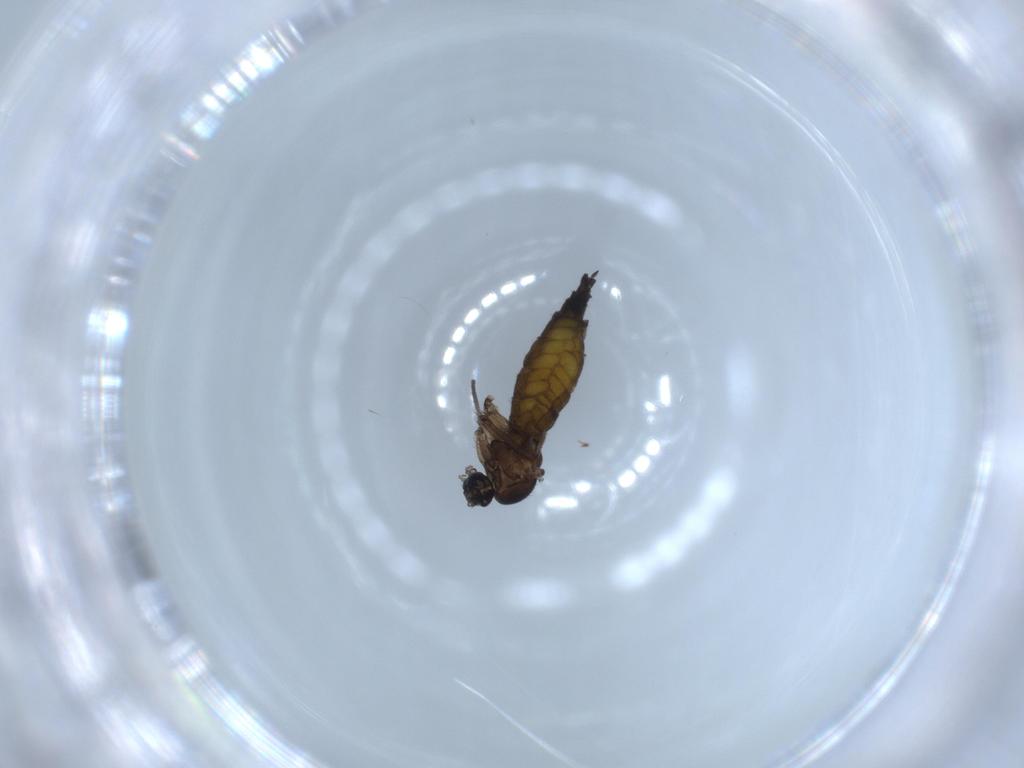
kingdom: Animalia
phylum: Arthropoda
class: Insecta
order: Diptera
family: Sciaridae
